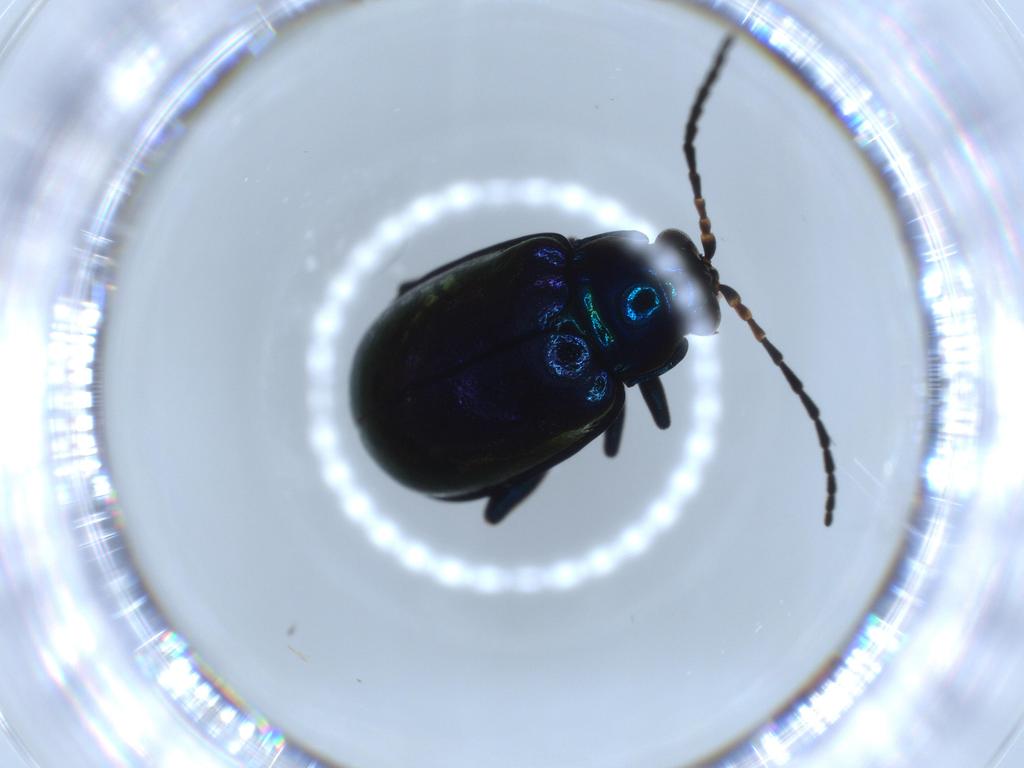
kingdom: Animalia
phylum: Arthropoda
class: Insecta
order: Coleoptera
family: Chrysomelidae
